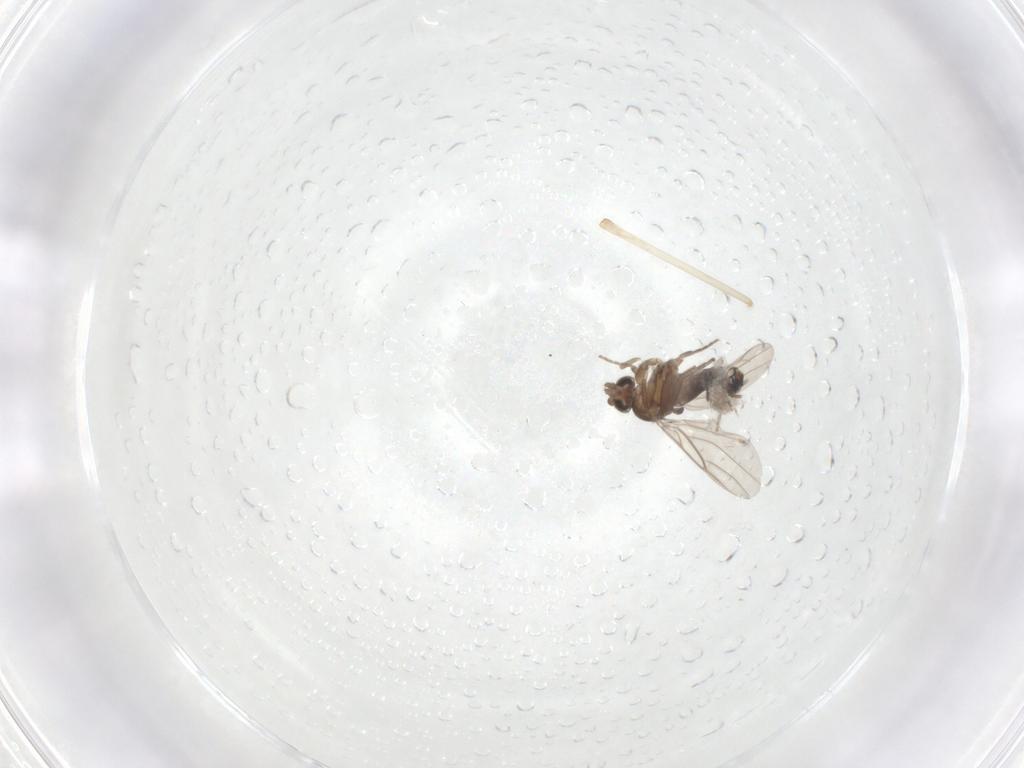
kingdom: Animalia
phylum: Arthropoda
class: Insecta
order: Diptera
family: Phoridae
